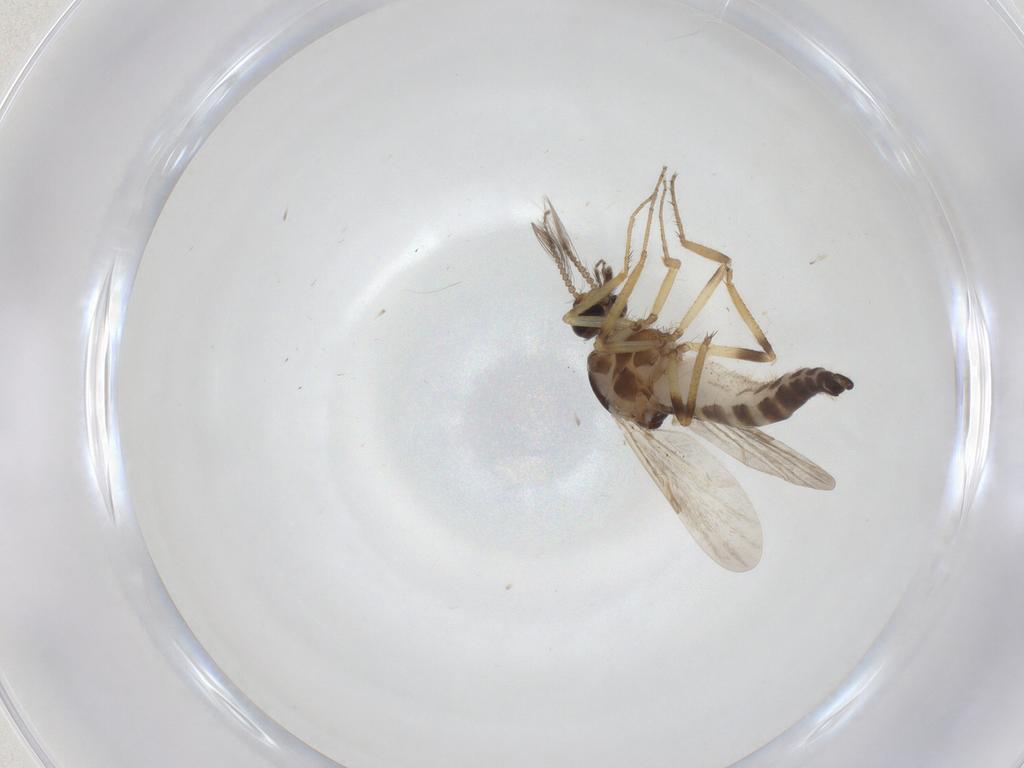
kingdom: Animalia
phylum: Arthropoda
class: Insecta
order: Diptera
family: Ceratopogonidae
